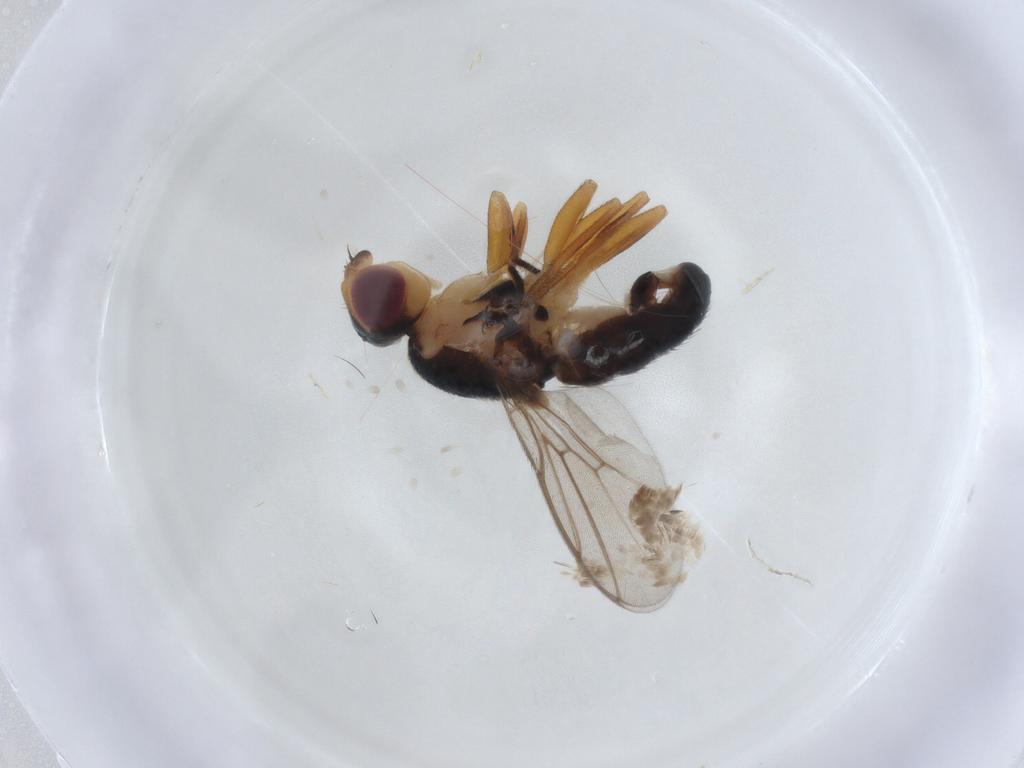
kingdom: Animalia
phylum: Arthropoda
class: Insecta
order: Diptera
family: Chloropidae
